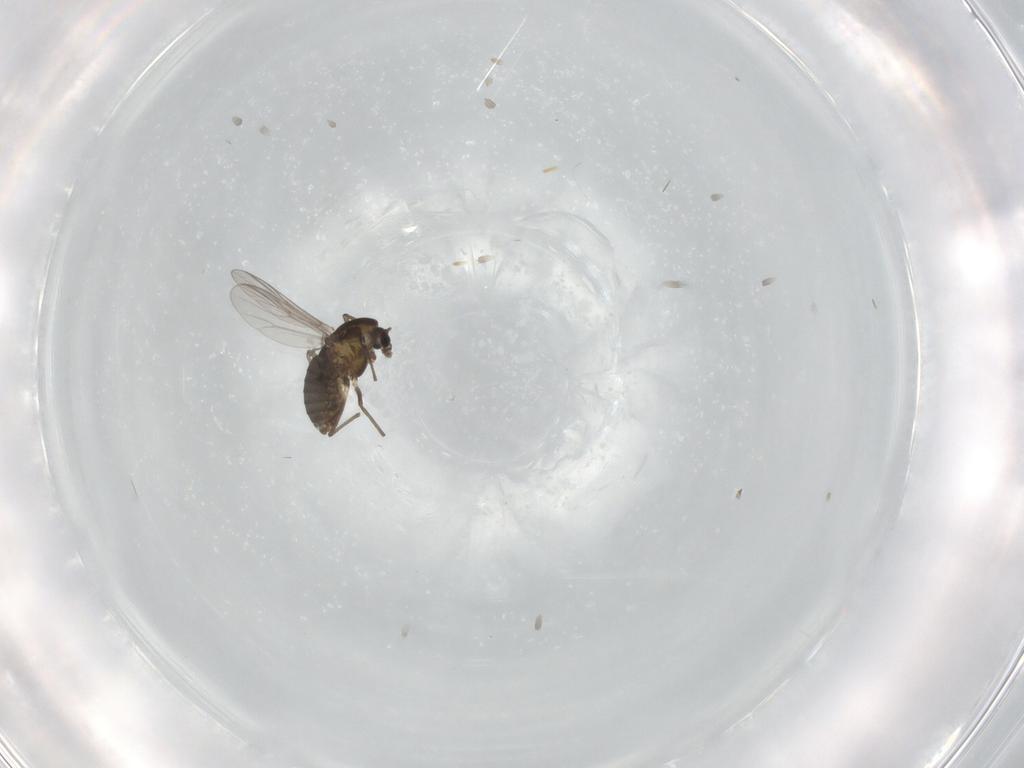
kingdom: Animalia
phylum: Arthropoda
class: Insecta
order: Diptera
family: Chironomidae
